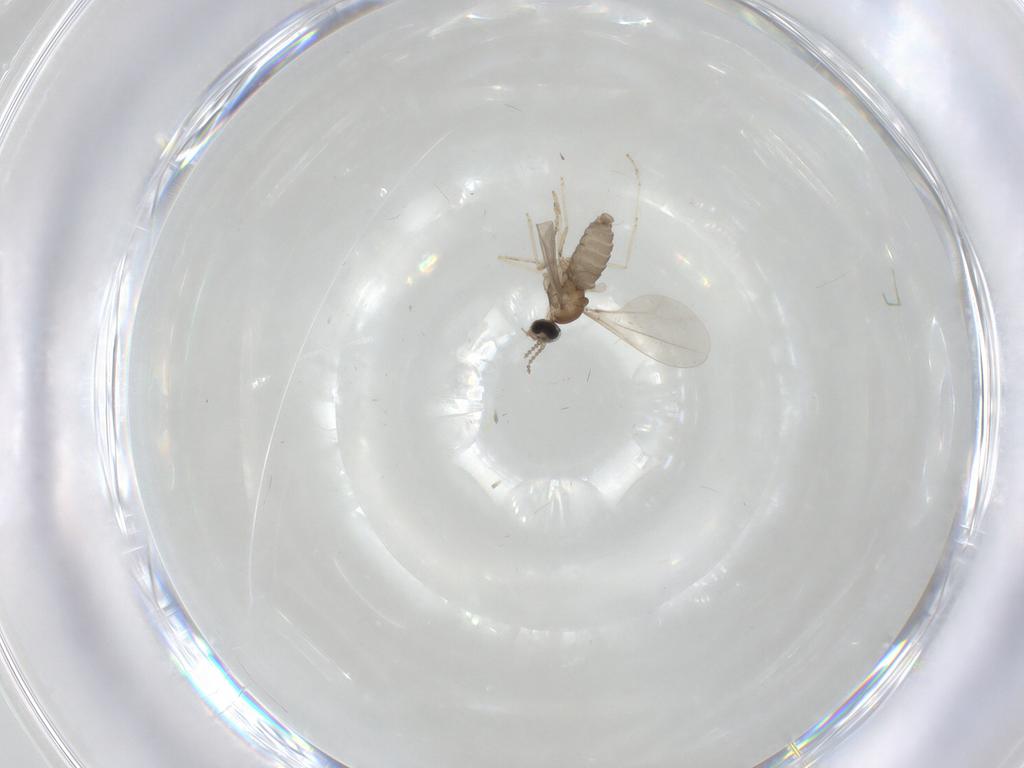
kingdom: Animalia
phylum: Arthropoda
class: Insecta
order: Diptera
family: Cecidomyiidae
